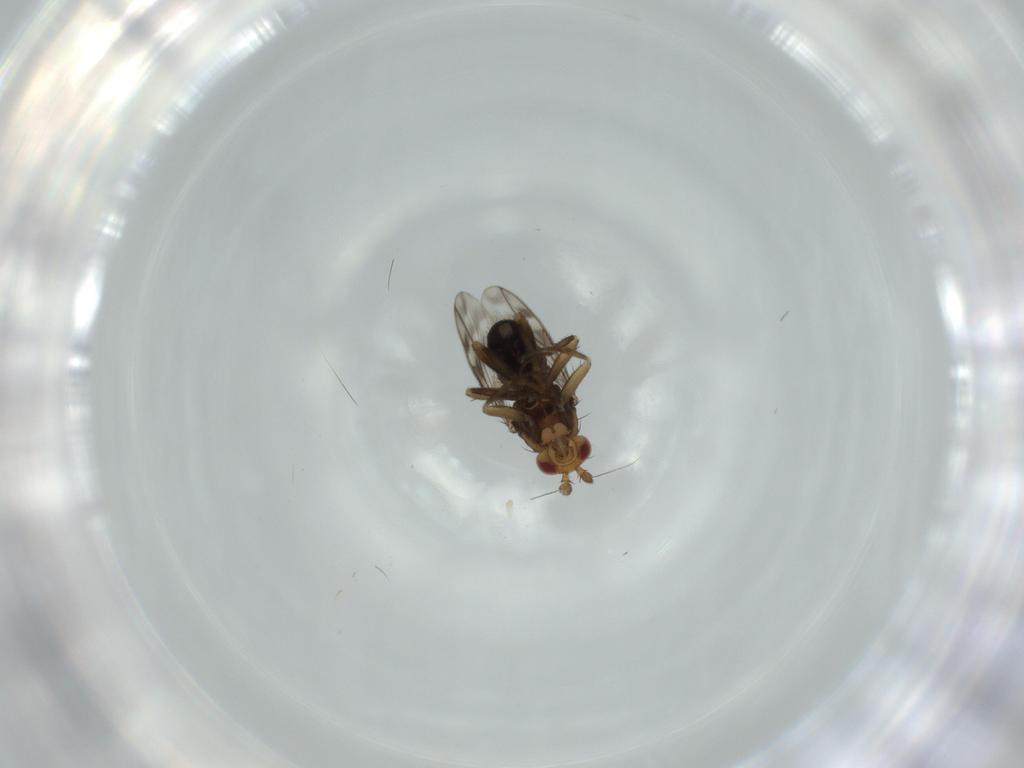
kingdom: Animalia
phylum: Arthropoda
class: Insecta
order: Diptera
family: Sphaeroceridae
